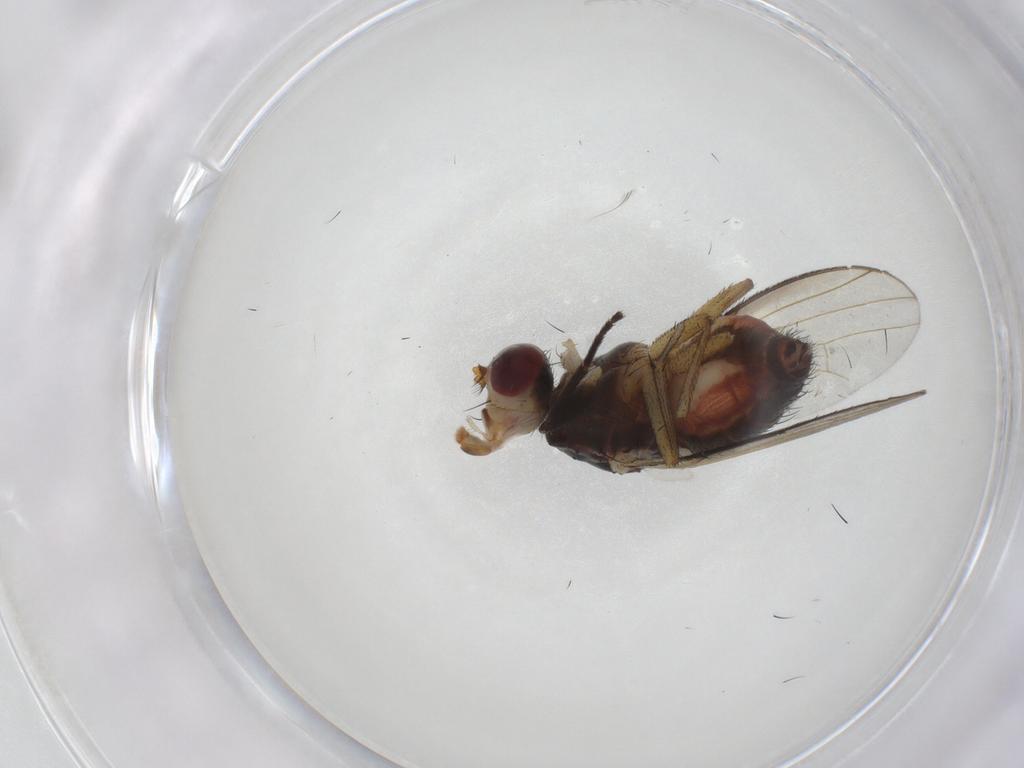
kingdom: Animalia
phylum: Arthropoda
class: Insecta
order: Diptera
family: Heleomyzidae
